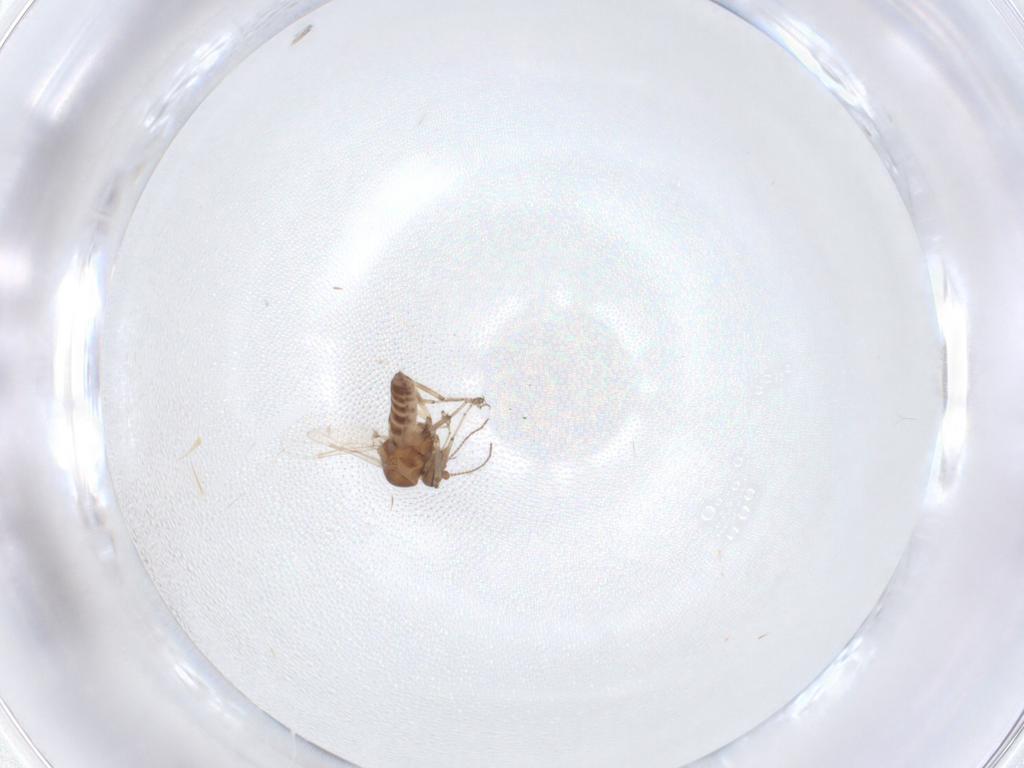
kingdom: Animalia
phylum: Arthropoda
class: Insecta
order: Diptera
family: Ceratopogonidae
